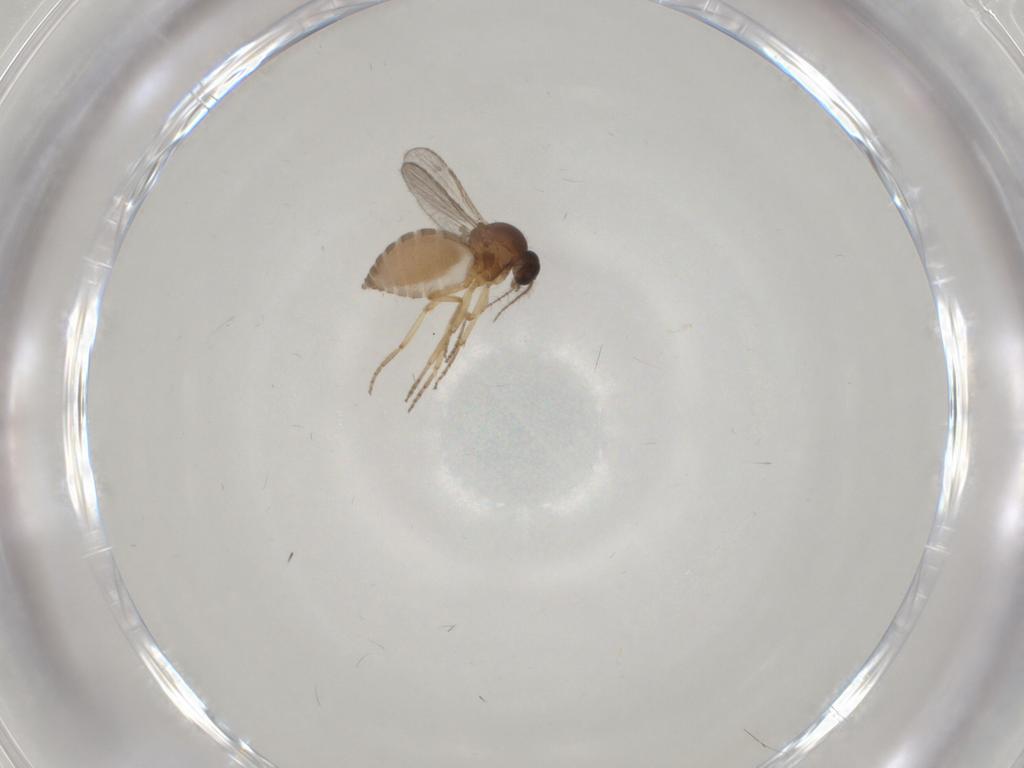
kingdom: Animalia
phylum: Arthropoda
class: Insecta
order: Diptera
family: Ceratopogonidae
